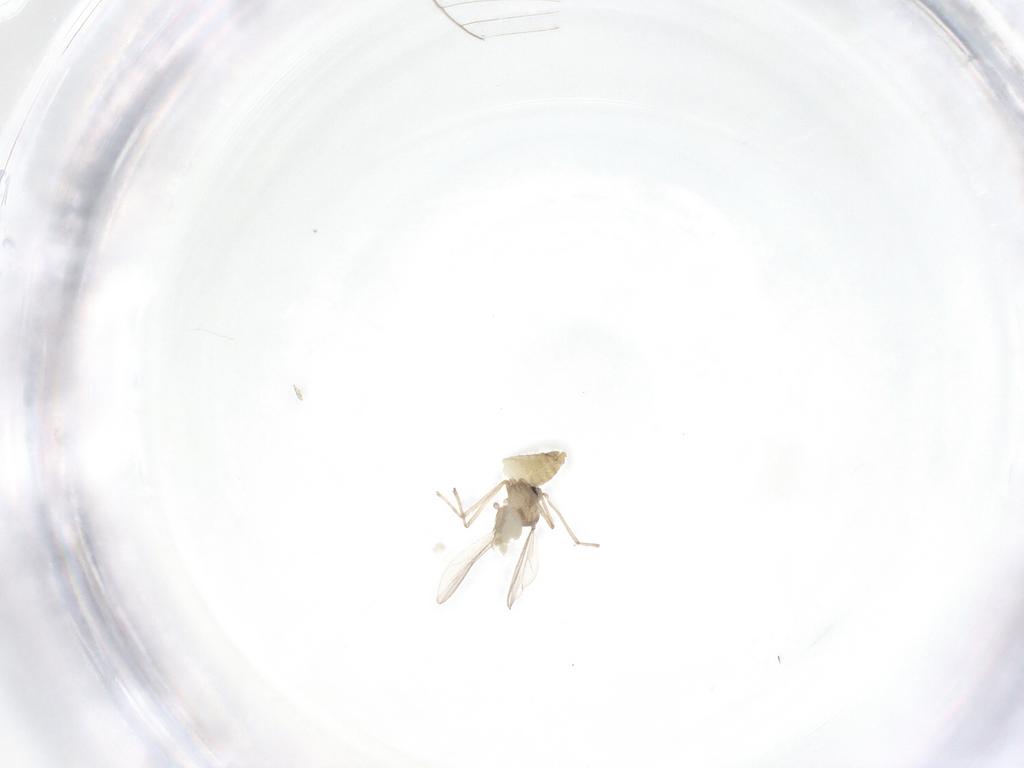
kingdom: Animalia
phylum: Arthropoda
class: Insecta
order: Diptera
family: Chironomidae
